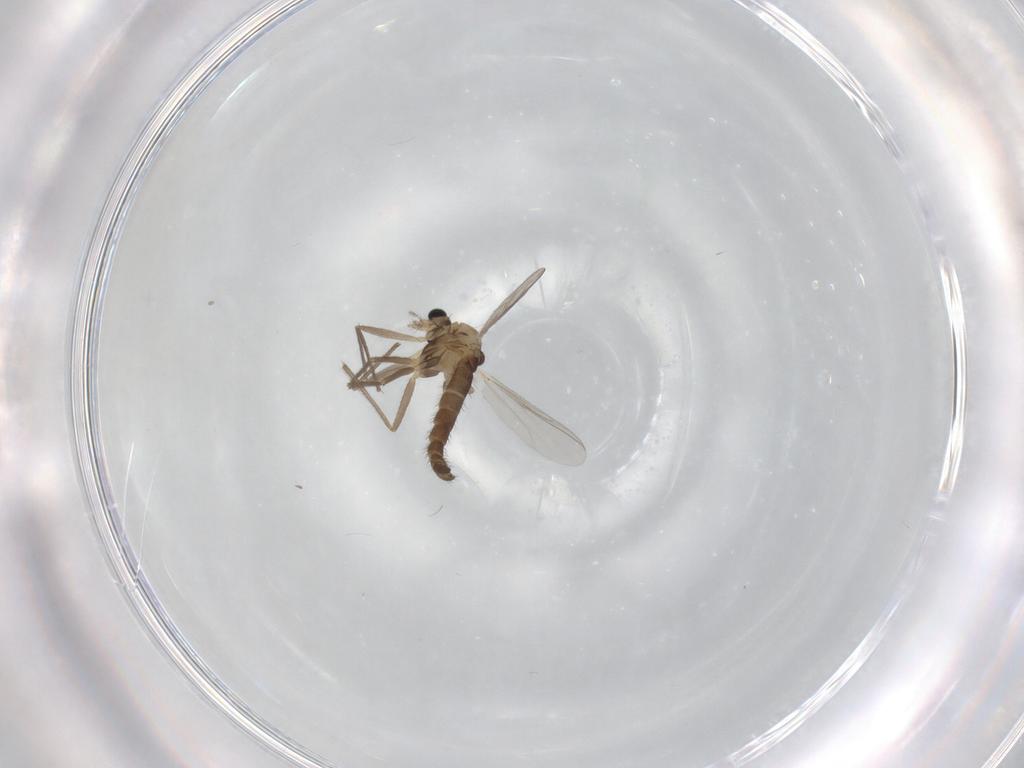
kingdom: Animalia
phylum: Arthropoda
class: Insecta
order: Diptera
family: Chironomidae
